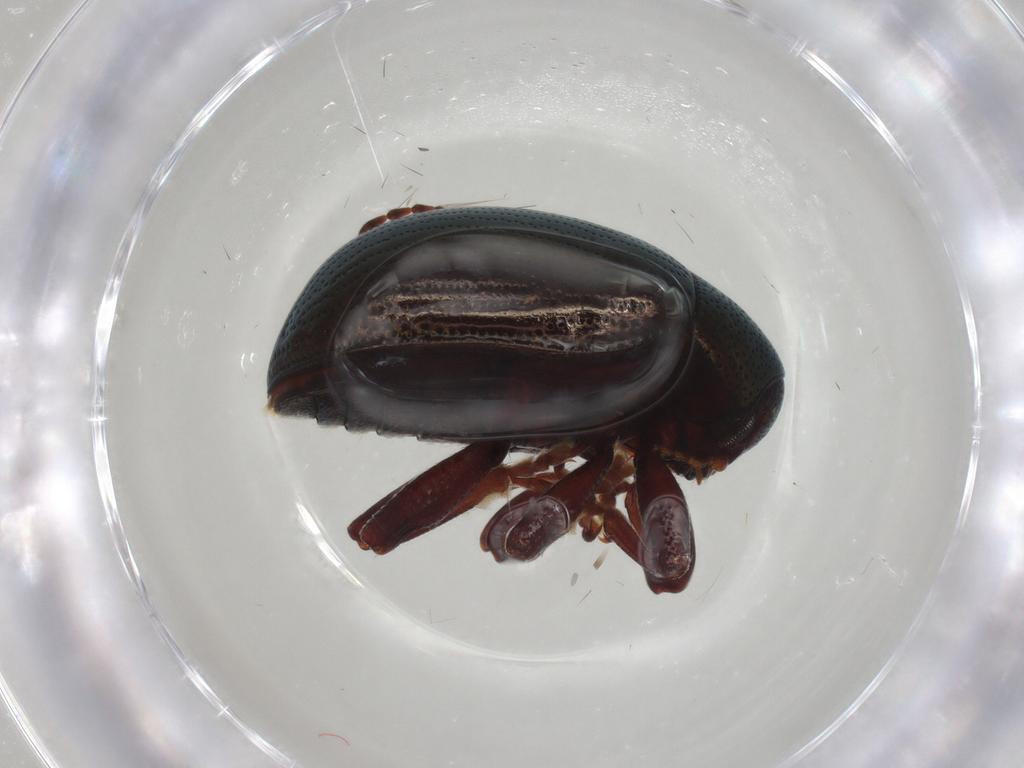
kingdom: Animalia
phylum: Arthropoda
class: Insecta
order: Coleoptera
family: Chrysomelidae
